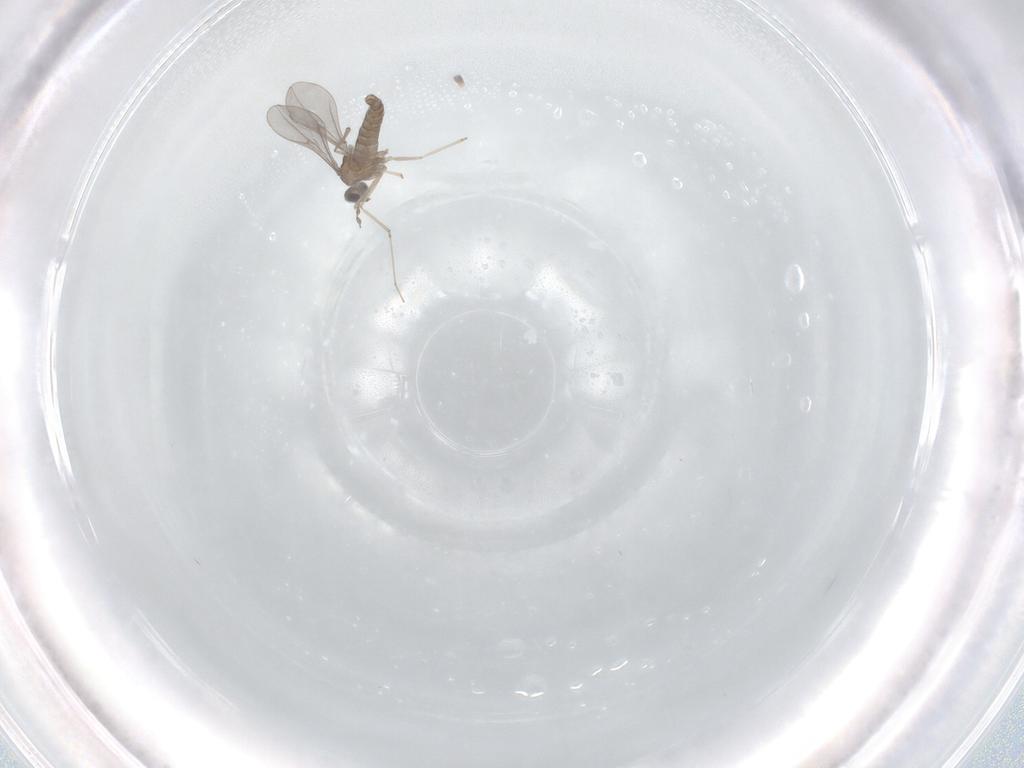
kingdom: Animalia
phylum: Arthropoda
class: Insecta
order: Diptera
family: Cecidomyiidae
